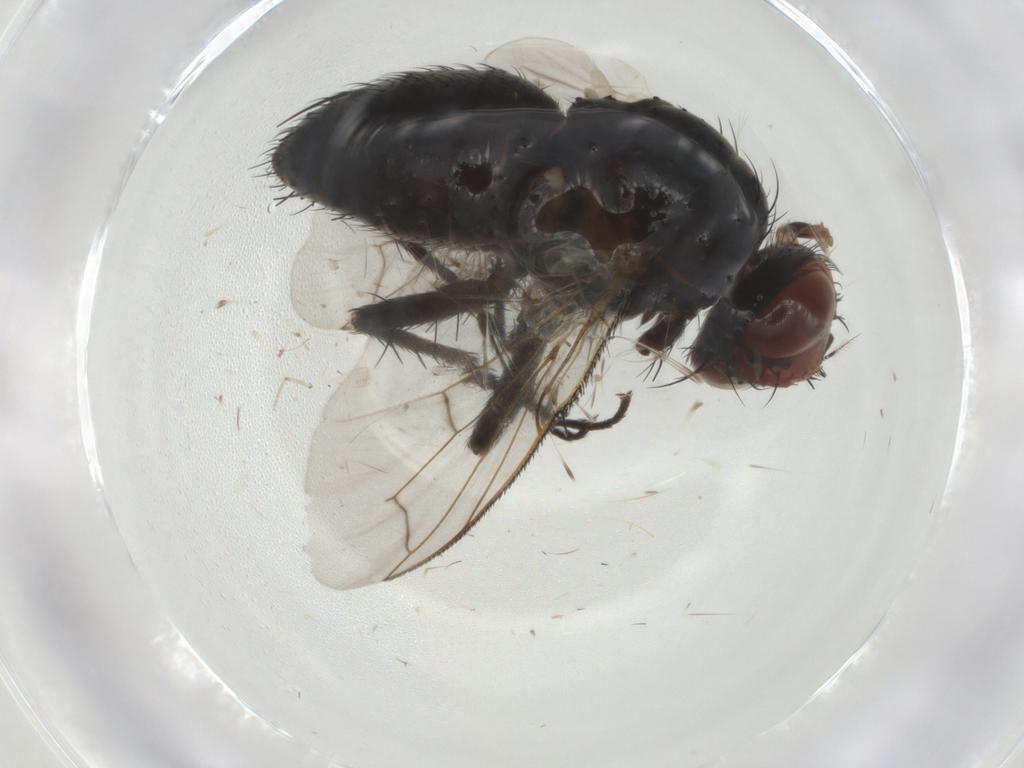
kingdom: Animalia
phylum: Arthropoda
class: Insecta
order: Diptera
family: Tachinidae
